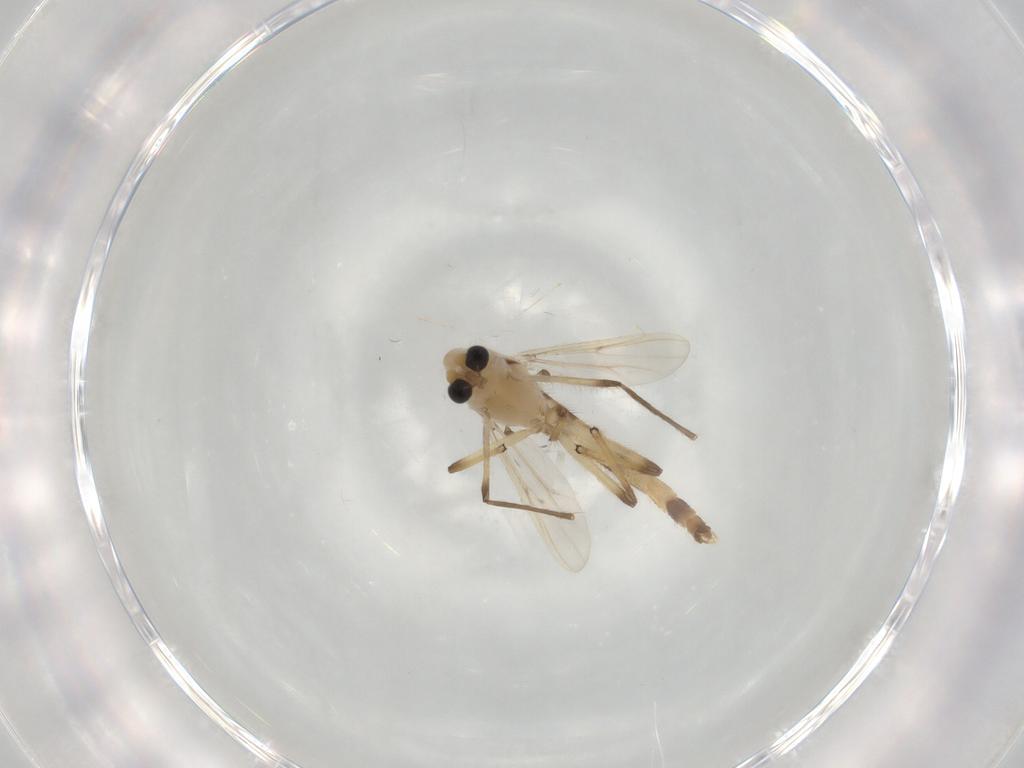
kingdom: Animalia
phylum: Arthropoda
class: Insecta
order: Diptera
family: Chironomidae
